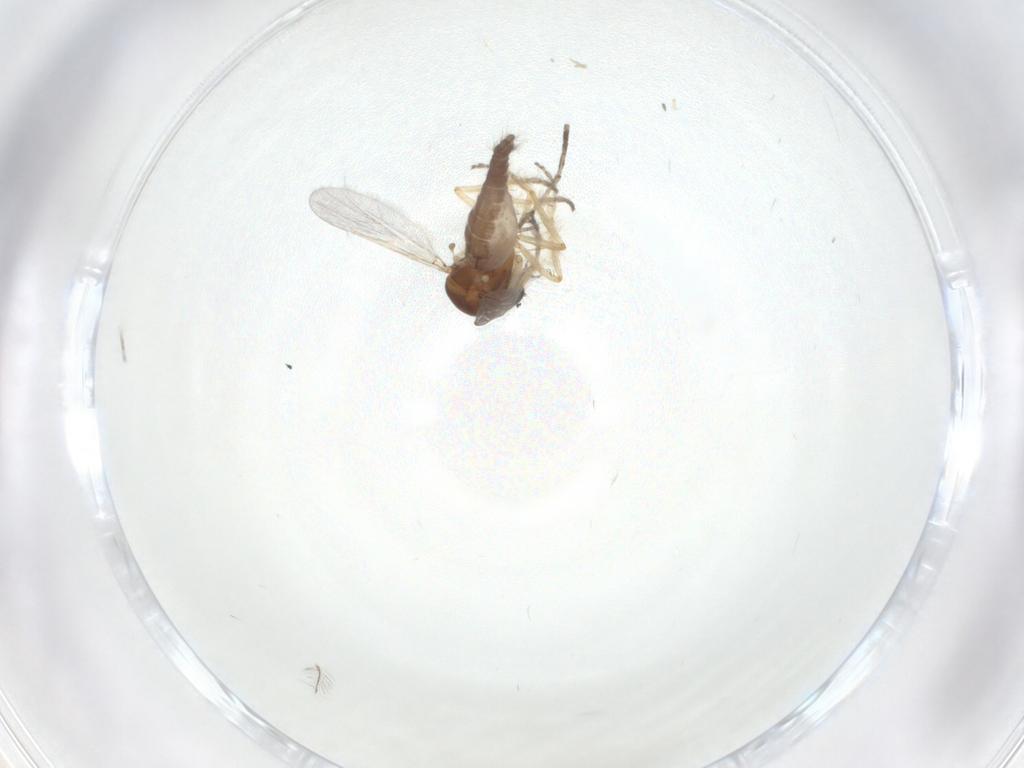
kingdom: Animalia
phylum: Arthropoda
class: Insecta
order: Diptera
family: Ceratopogonidae
